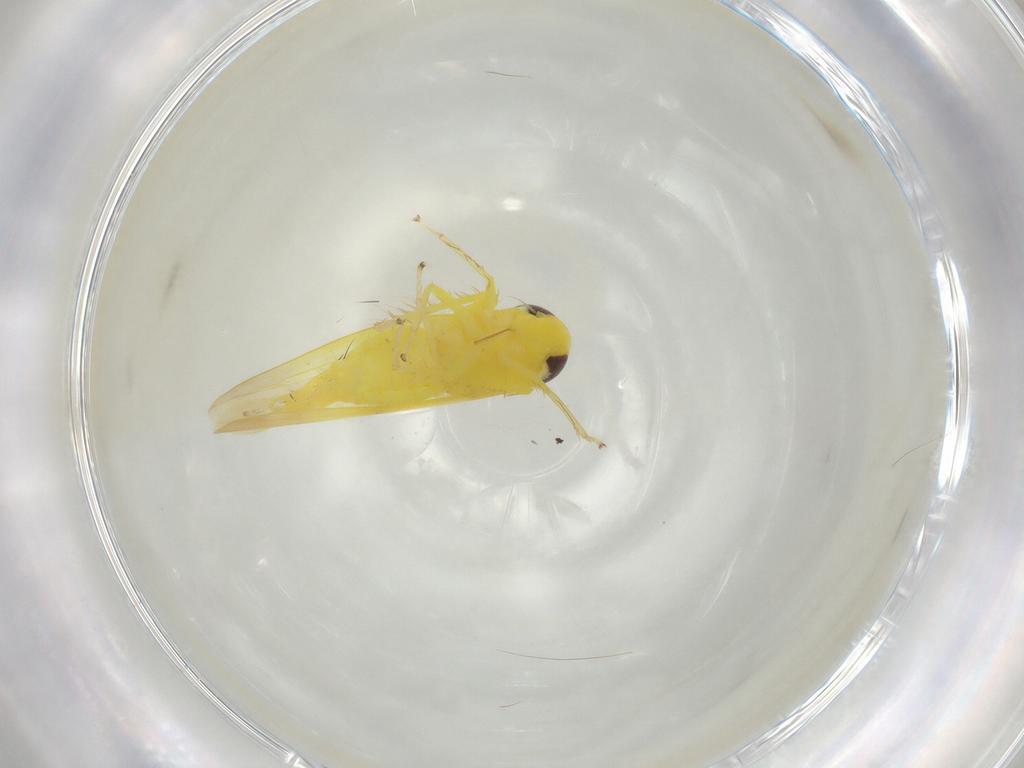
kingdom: Animalia
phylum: Arthropoda
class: Insecta
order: Hemiptera
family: Cicadellidae
